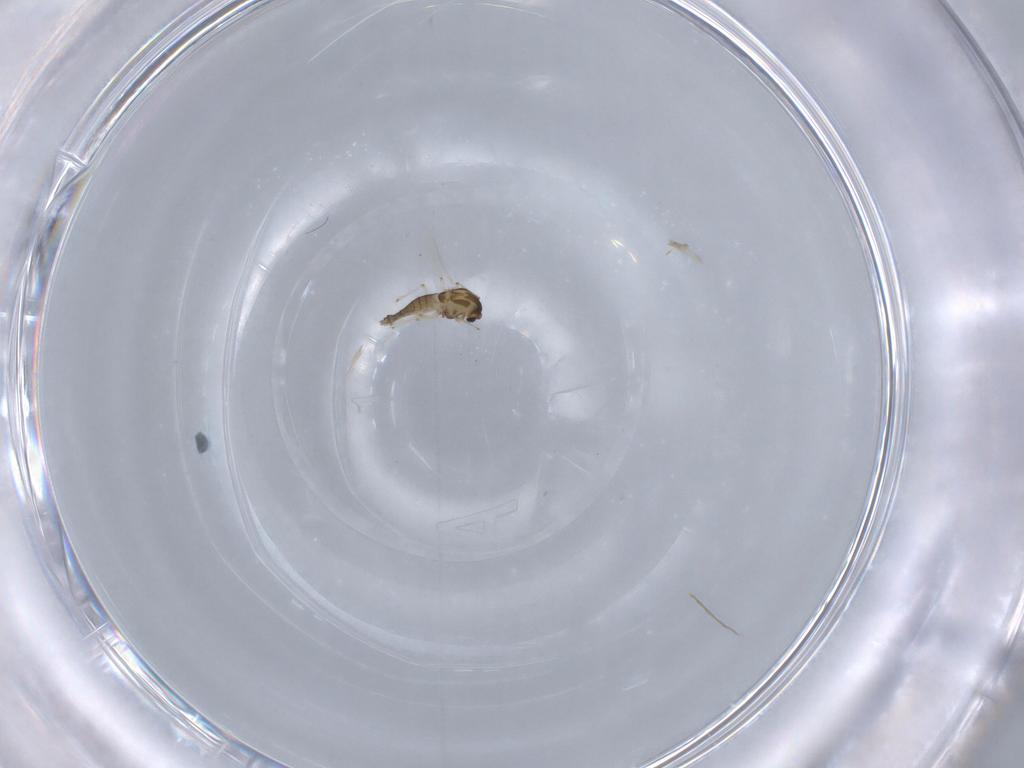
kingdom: Animalia
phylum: Arthropoda
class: Insecta
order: Diptera
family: Chironomidae
